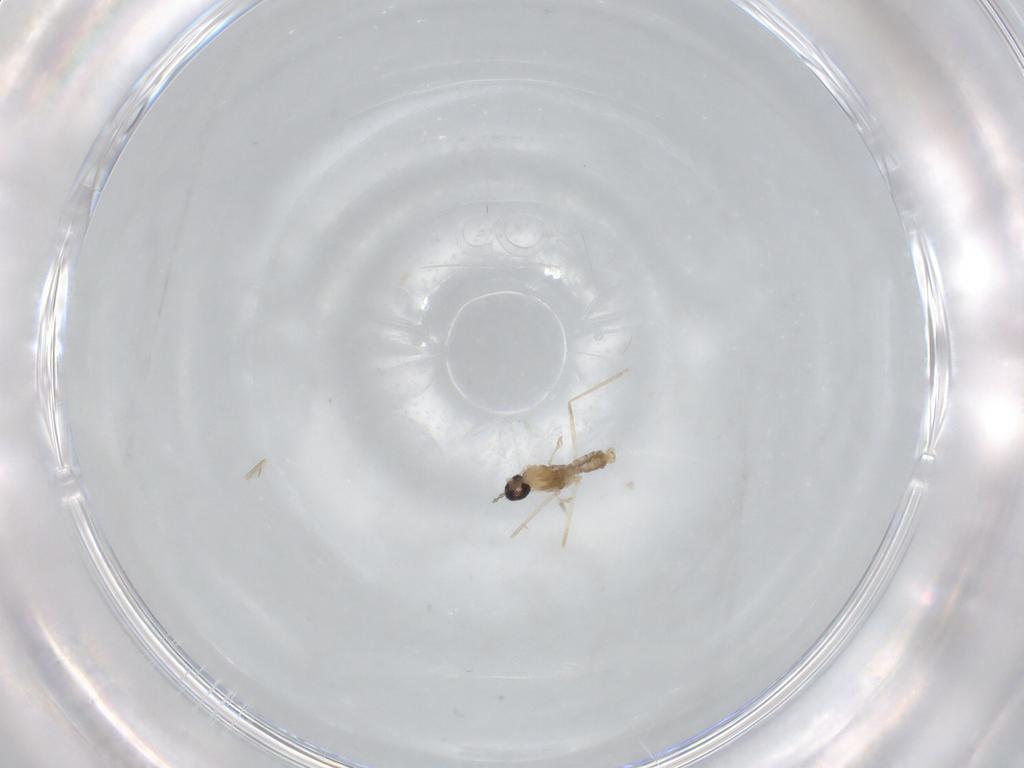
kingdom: Animalia
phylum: Arthropoda
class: Insecta
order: Diptera
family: Cecidomyiidae
